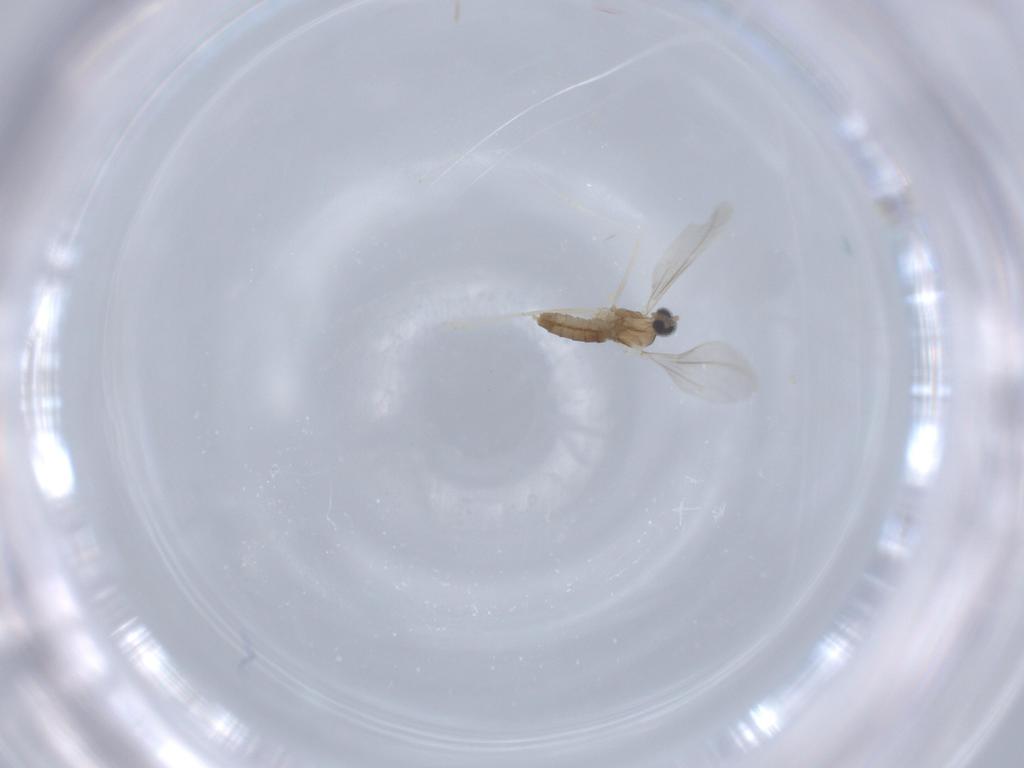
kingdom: Animalia
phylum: Arthropoda
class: Insecta
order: Diptera
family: Cecidomyiidae
